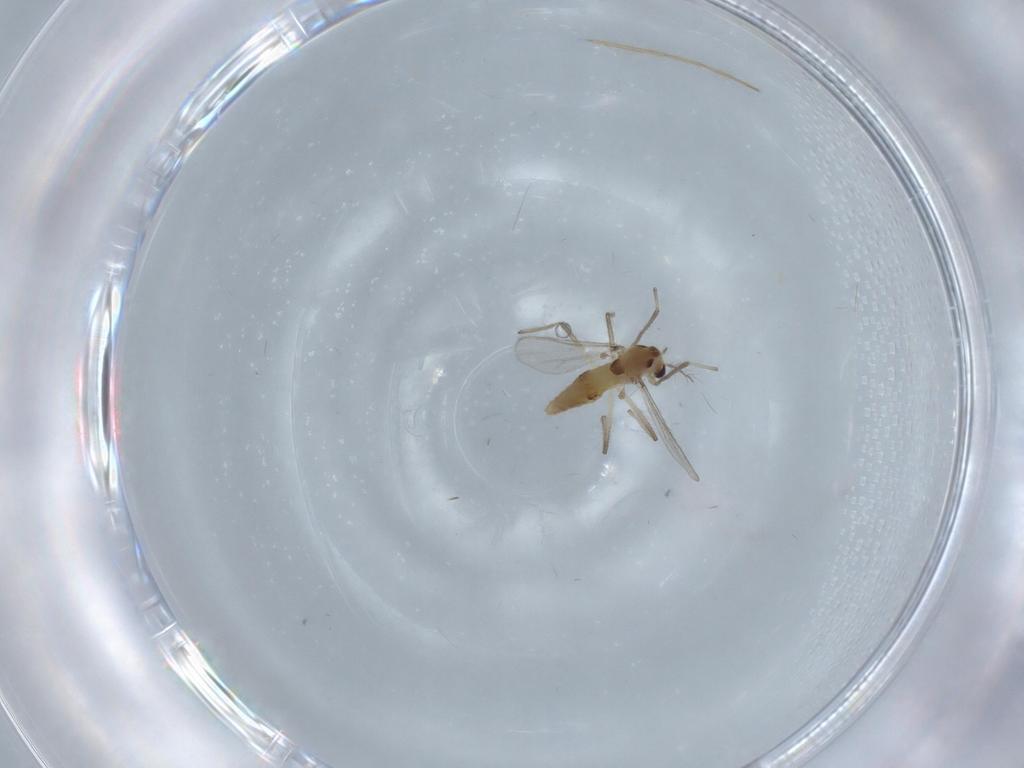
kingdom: Animalia
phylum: Arthropoda
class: Insecta
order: Diptera
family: Chironomidae
